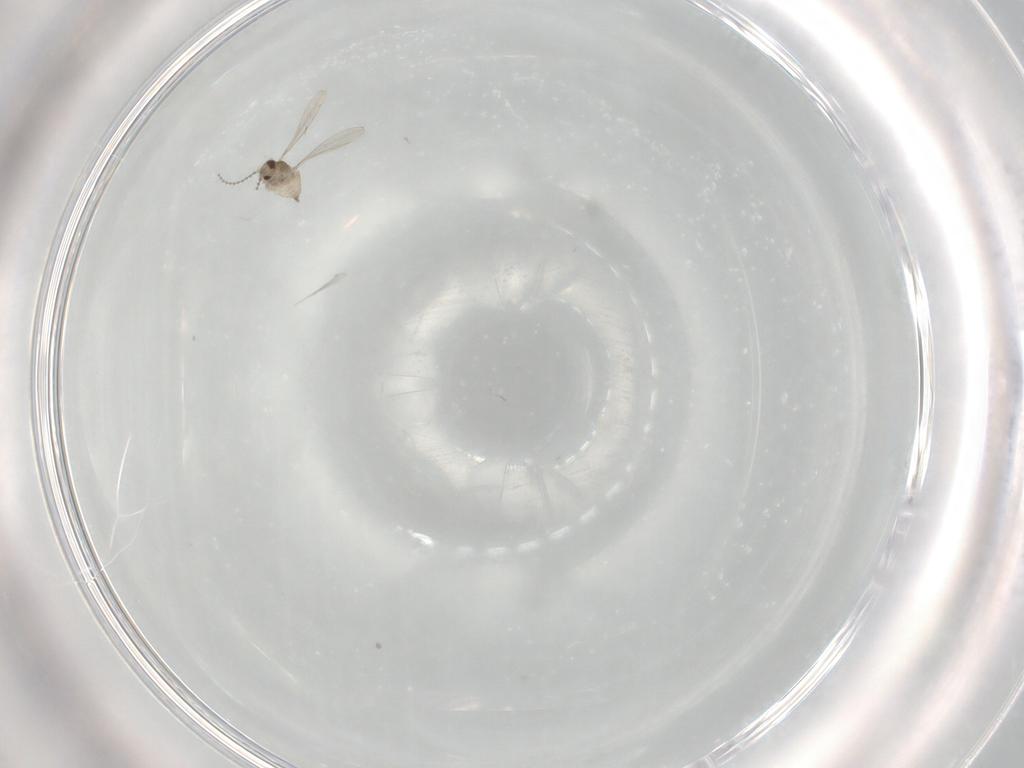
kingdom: Animalia
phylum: Arthropoda
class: Insecta
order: Diptera
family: Cecidomyiidae
